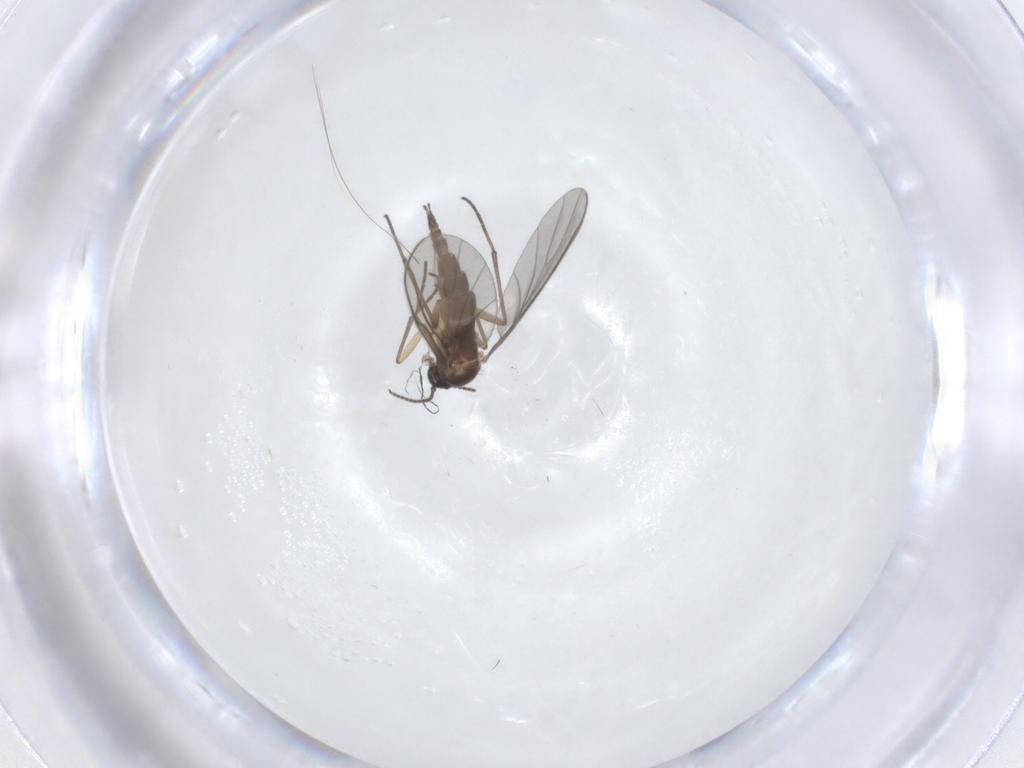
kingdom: Animalia
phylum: Arthropoda
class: Insecta
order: Diptera
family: Sciaridae
